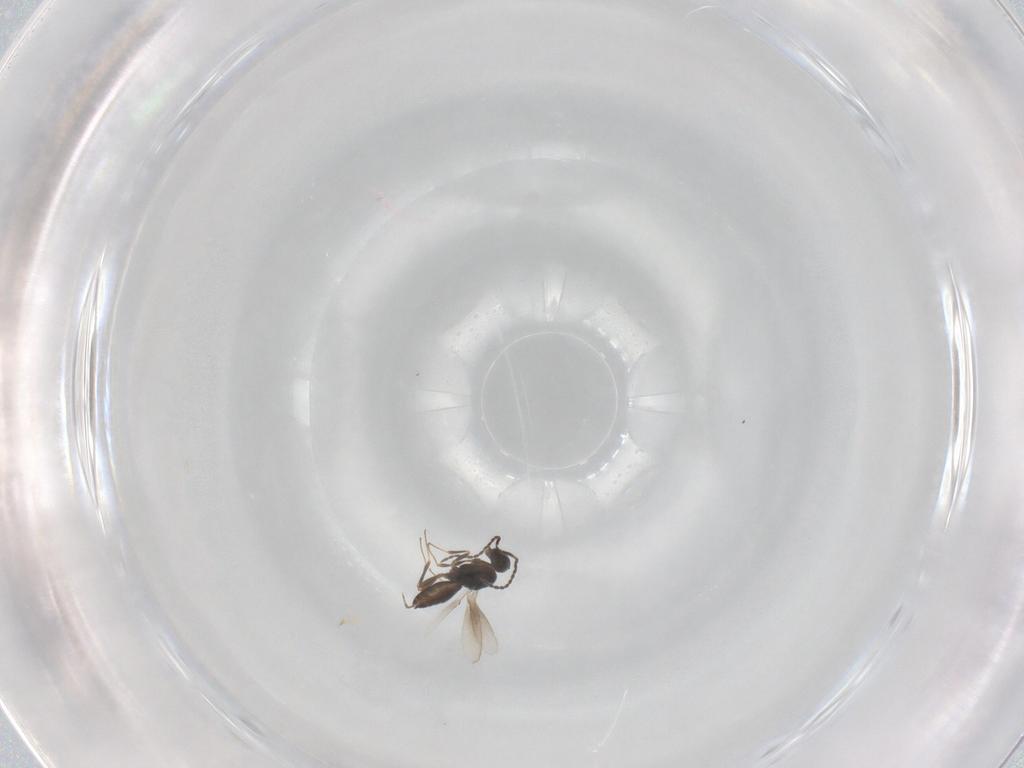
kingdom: Animalia
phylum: Arthropoda
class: Insecta
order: Hymenoptera
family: Scelionidae
